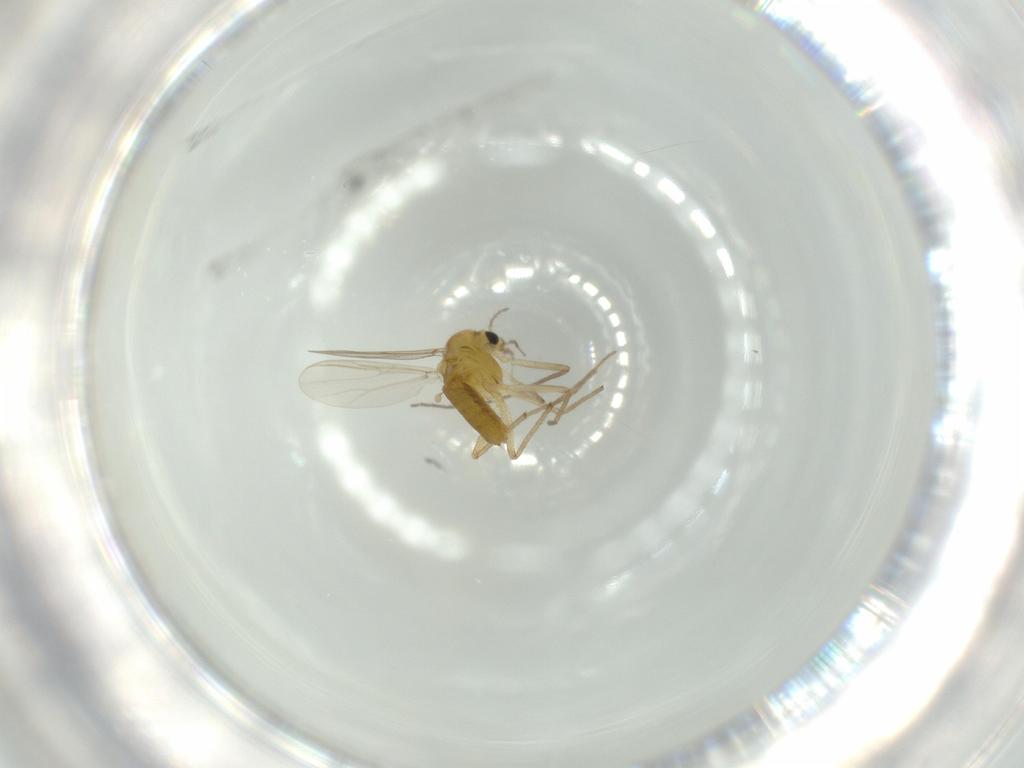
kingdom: Animalia
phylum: Arthropoda
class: Insecta
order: Diptera
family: Chironomidae
